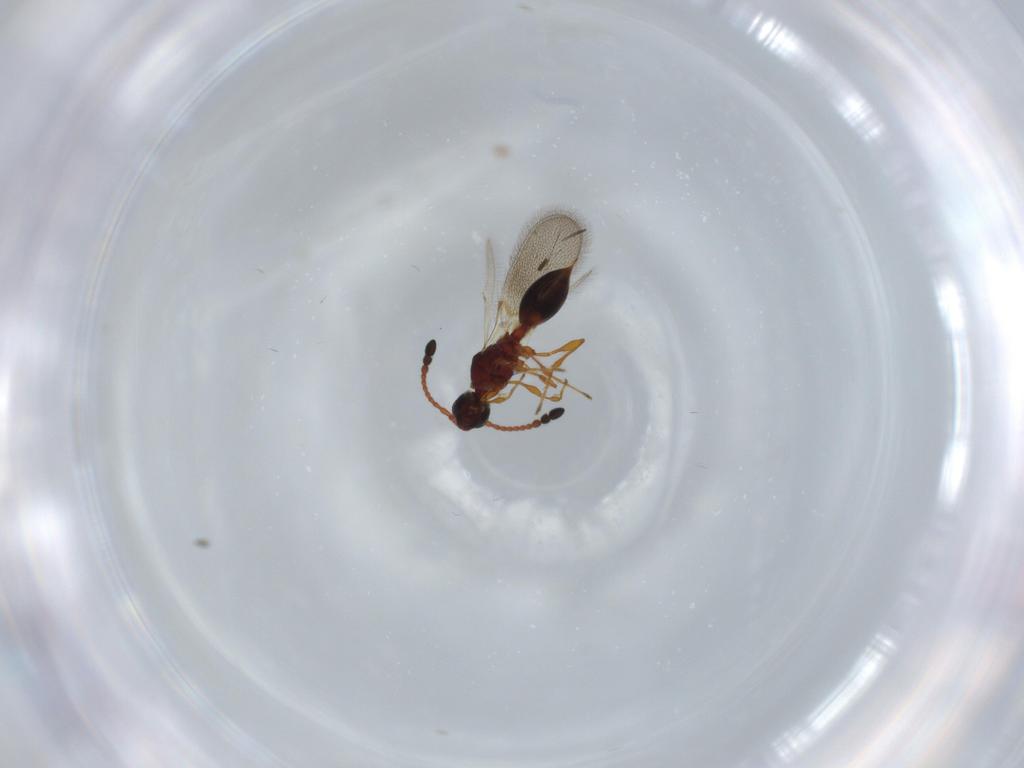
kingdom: Animalia
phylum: Arthropoda
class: Insecta
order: Hymenoptera
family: Diapriidae
